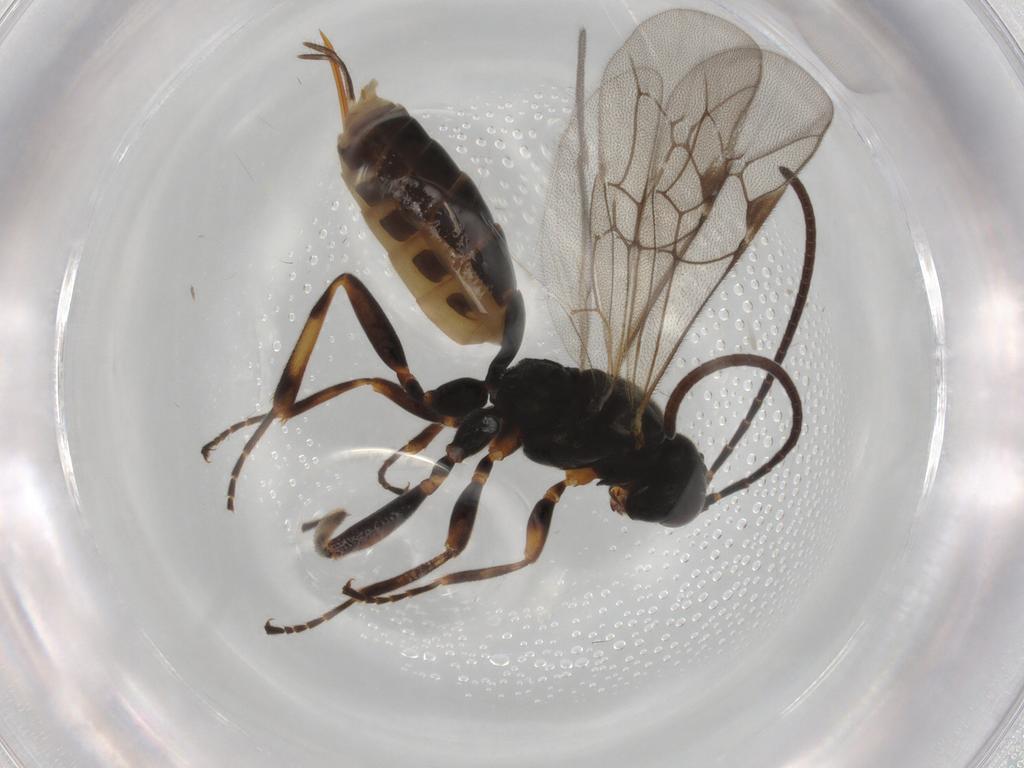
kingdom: Animalia
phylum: Arthropoda
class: Insecta
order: Hymenoptera
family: Ichneumonidae
